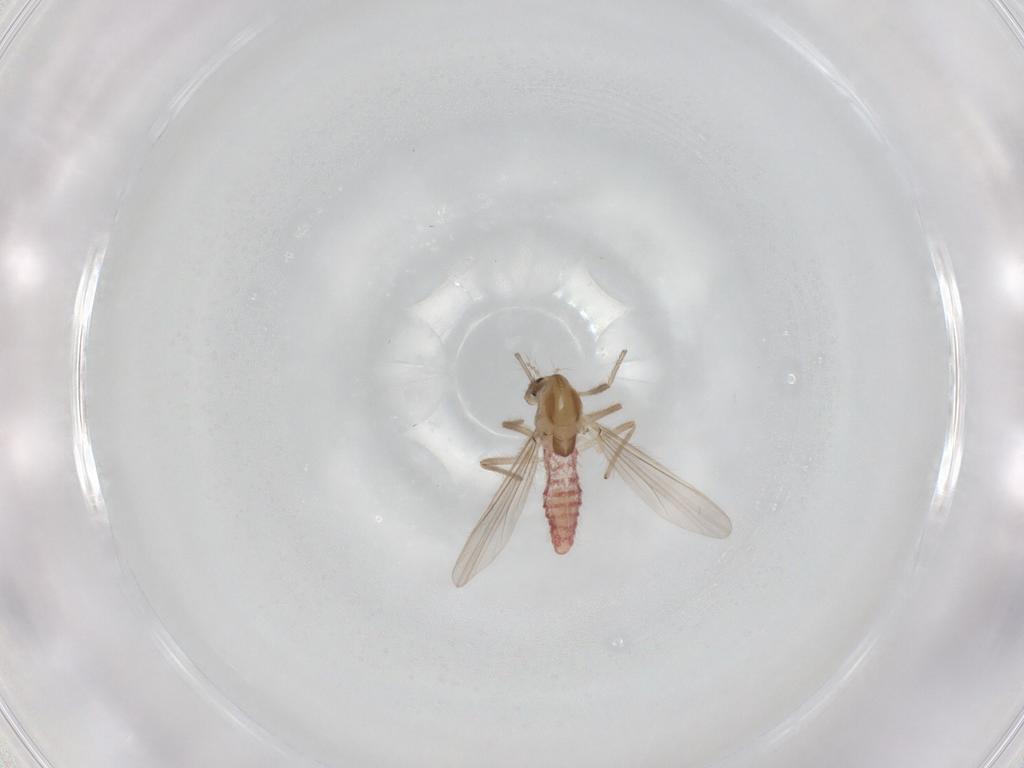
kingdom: Animalia
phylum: Arthropoda
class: Insecta
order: Diptera
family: Chironomidae
